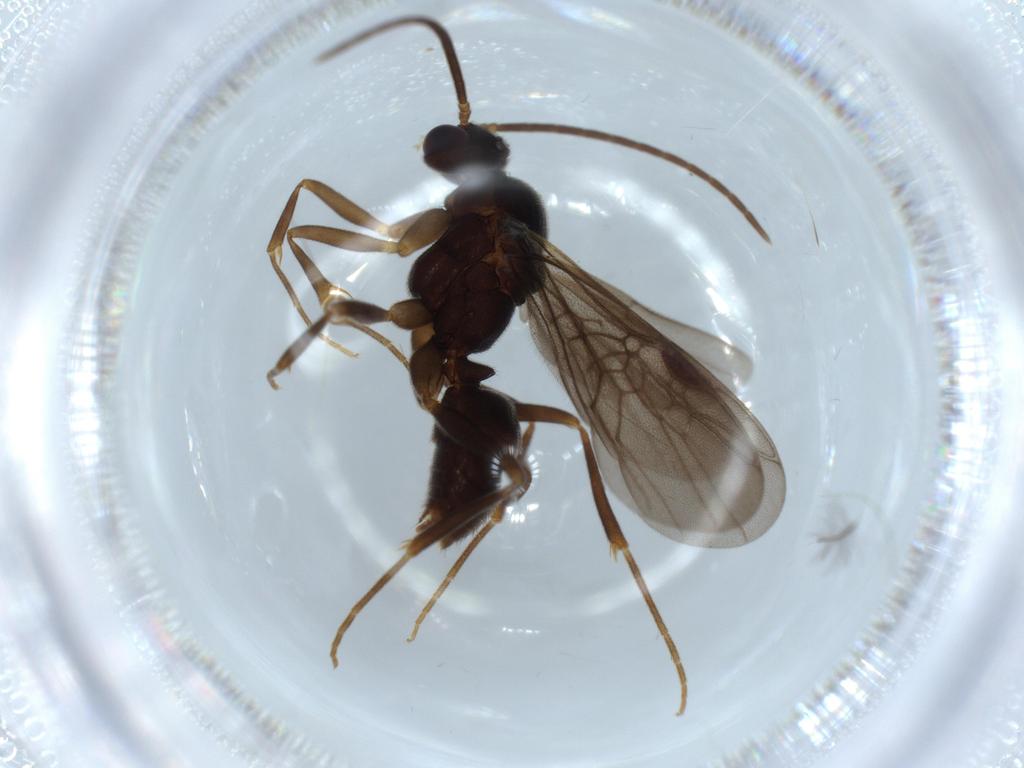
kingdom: Animalia
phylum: Arthropoda
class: Insecta
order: Hymenoptera
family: Formicidae
